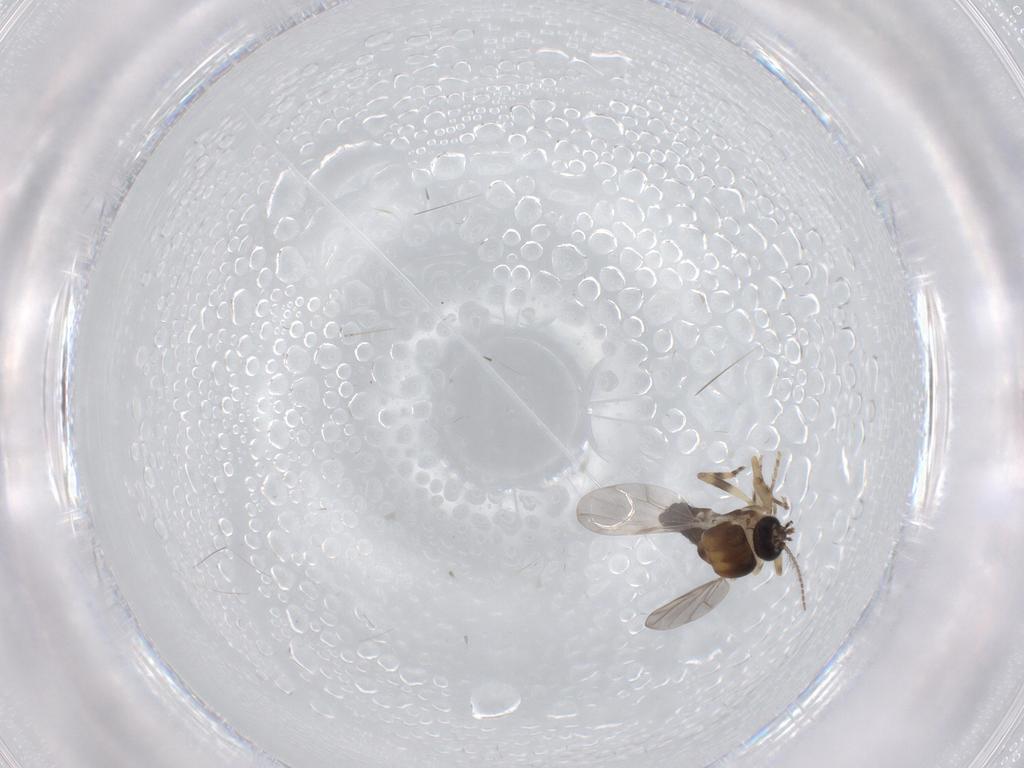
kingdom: Animalia
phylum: Arthropoda
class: Insecta
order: Diptera
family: Ceratopogonidae
